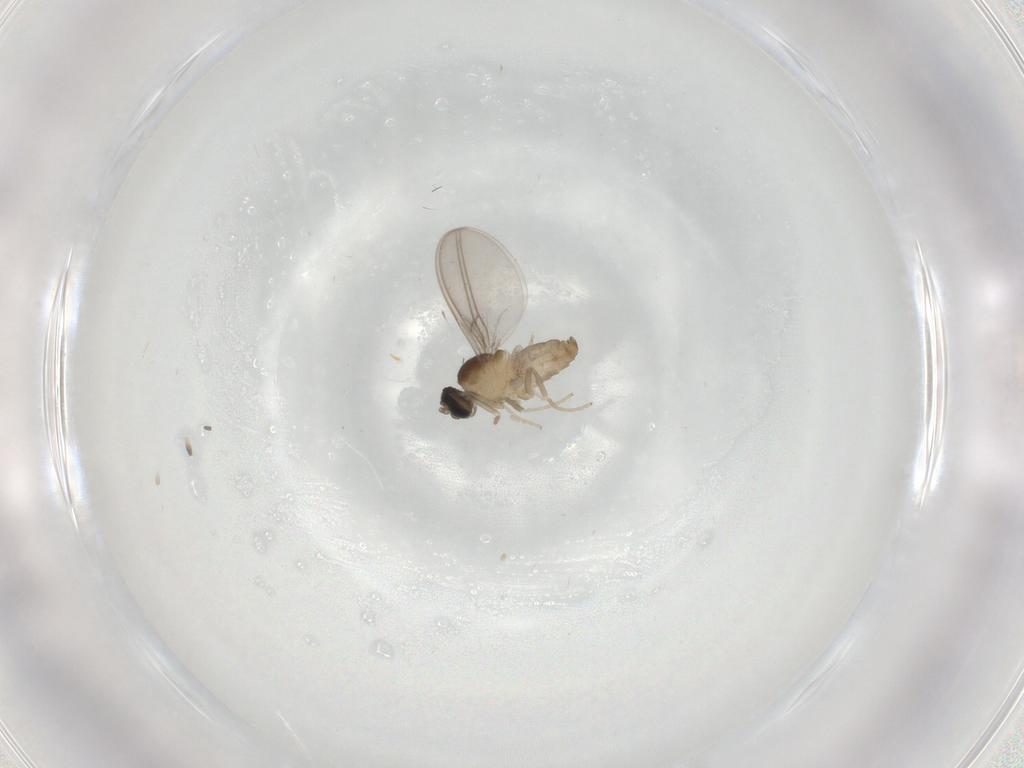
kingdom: Animalia
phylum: Arthropoda
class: Insecta
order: Diptera
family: Cecidomyiidae
